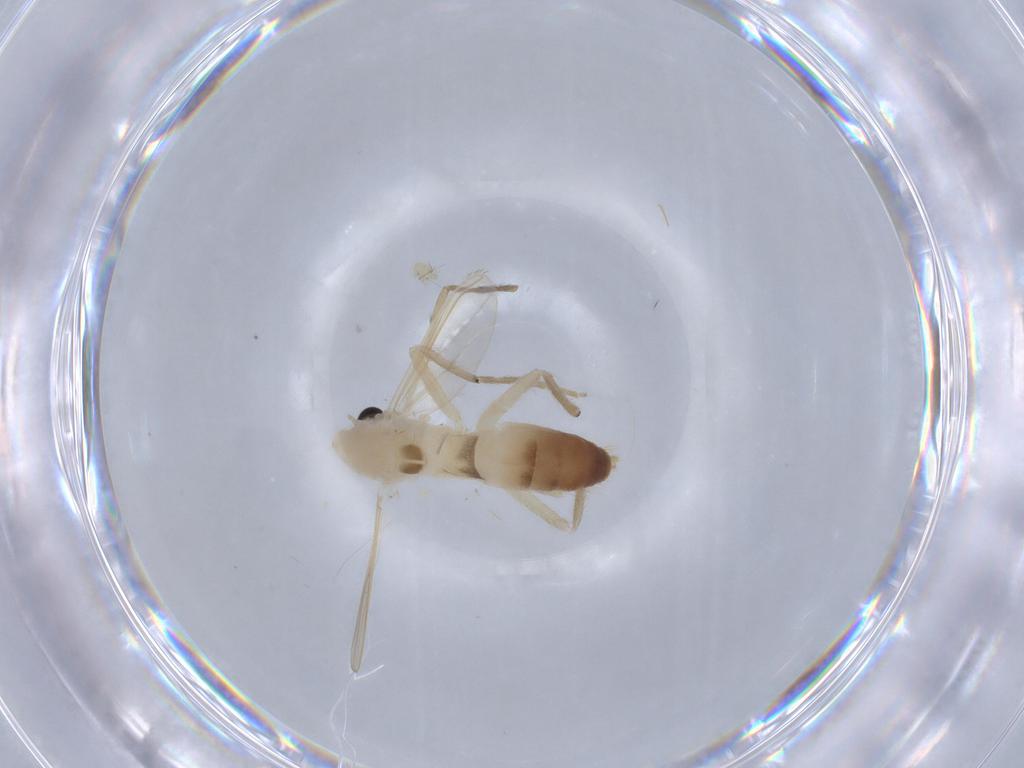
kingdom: Animalia
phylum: Arthropoda
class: Insecta
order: Diptera
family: Chironomidae
